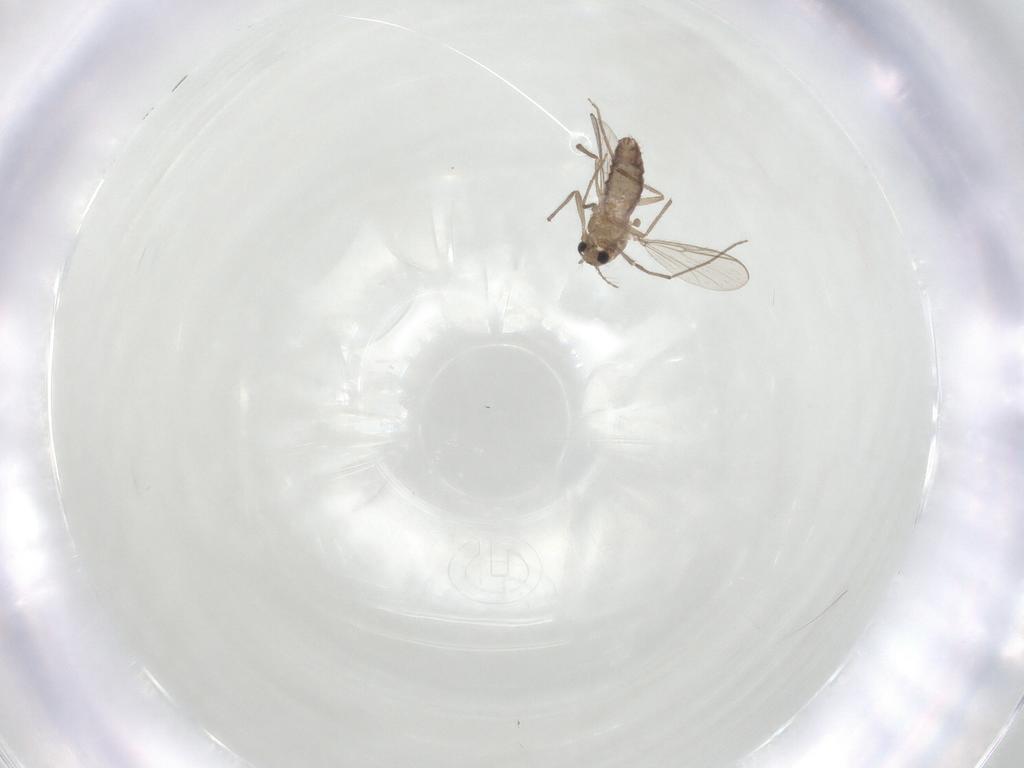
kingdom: Animalia
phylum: Arthropoda
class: Insecta
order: Diptera
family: Chironomidae
